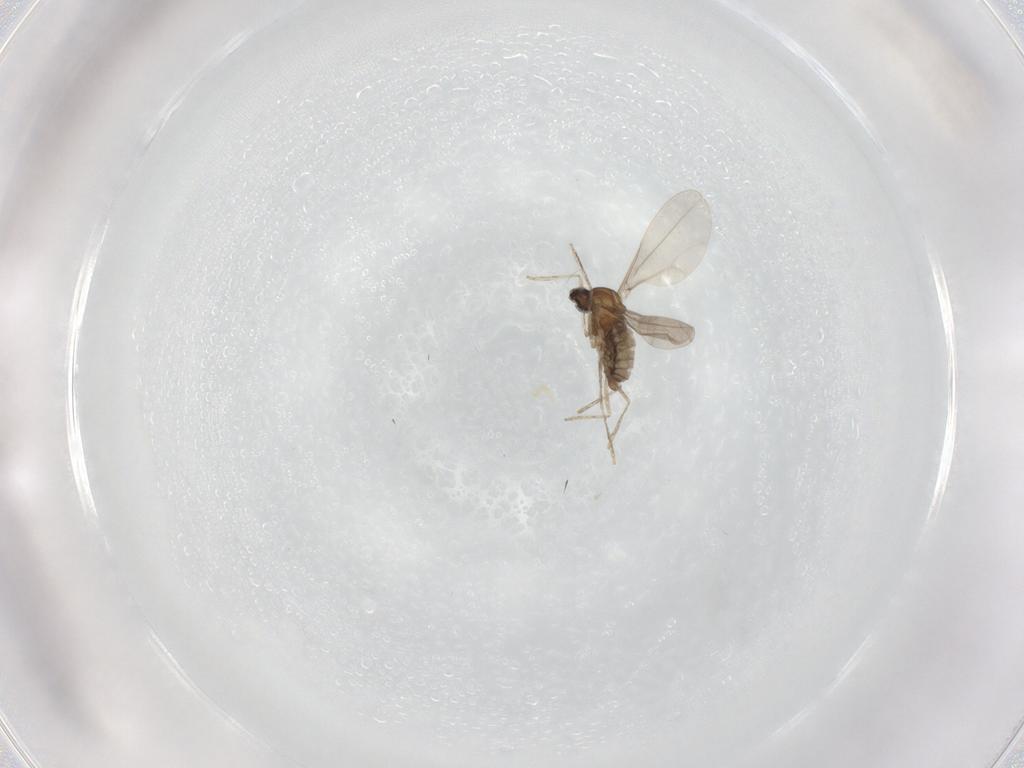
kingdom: Animalia
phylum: Arthropoda
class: Insecta
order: Diptera
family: Cecidomyiidae
